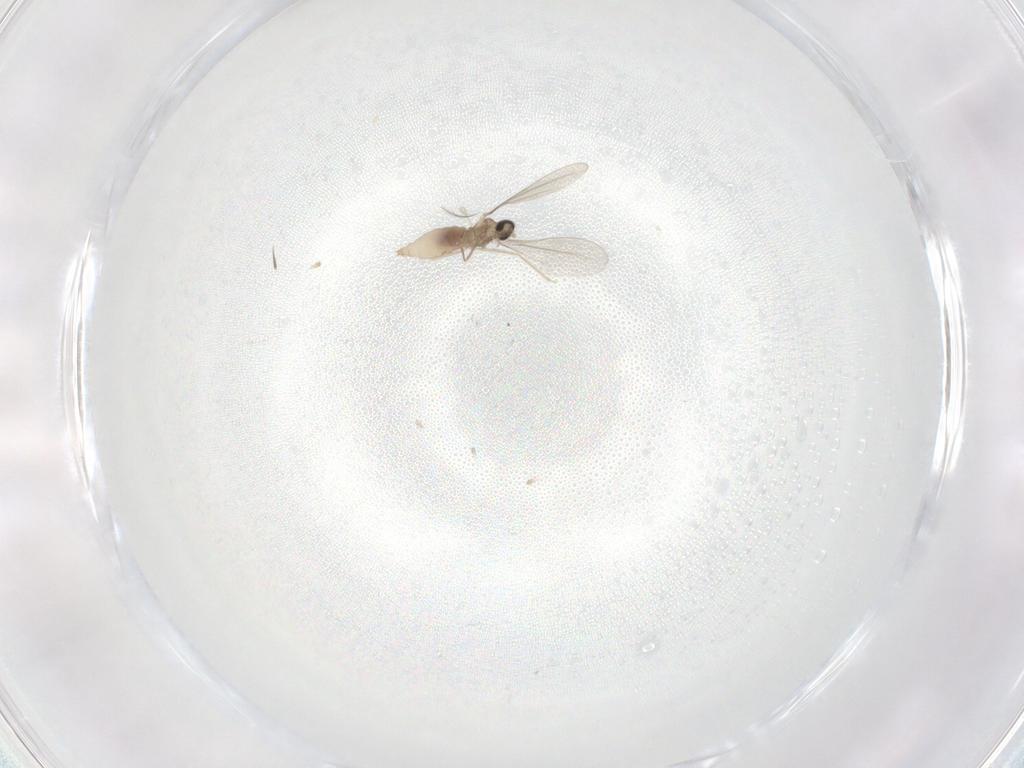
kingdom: Animalia
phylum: Arthropoda
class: Insecta
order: Diptera
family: Cecidomyiidae
